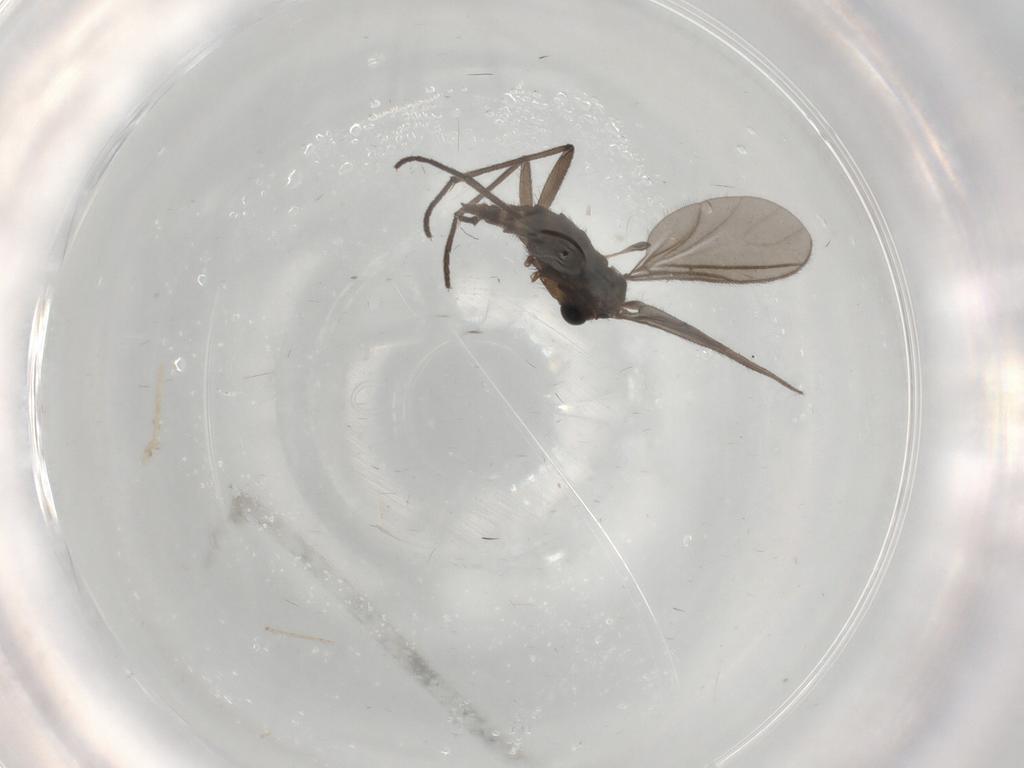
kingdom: Animalia
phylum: Arthropoda
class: Insecta
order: Diptera
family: Sciaridae
